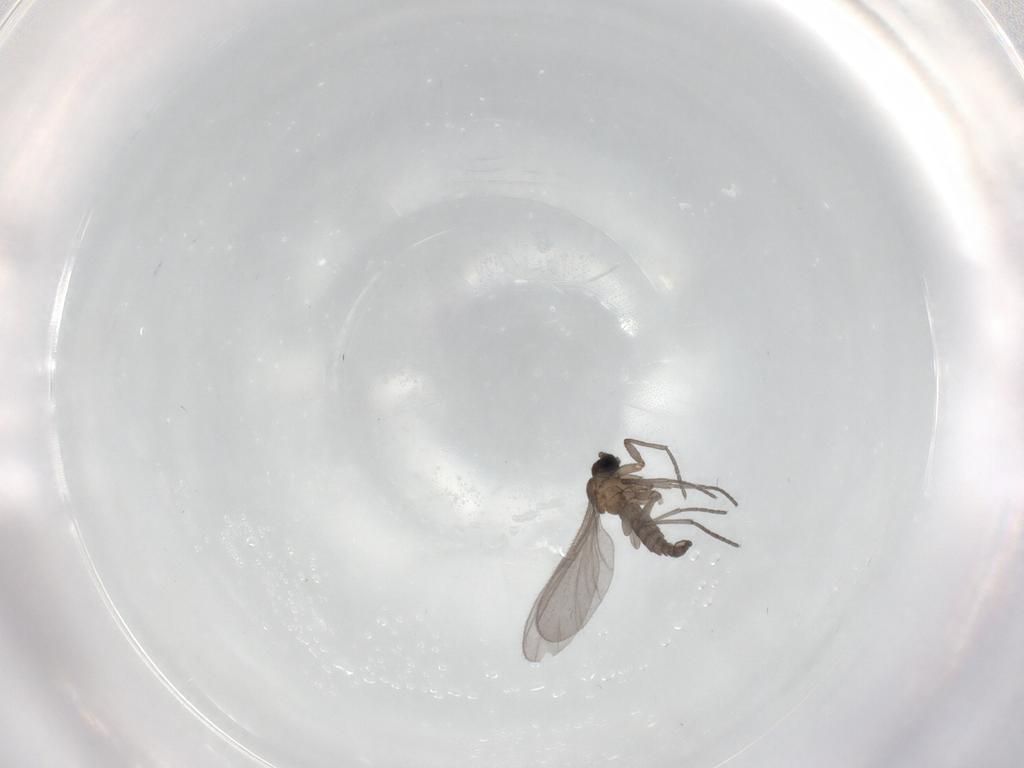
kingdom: Animalia
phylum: Arthropoda
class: Insecta
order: Diptera
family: Sciaridae
